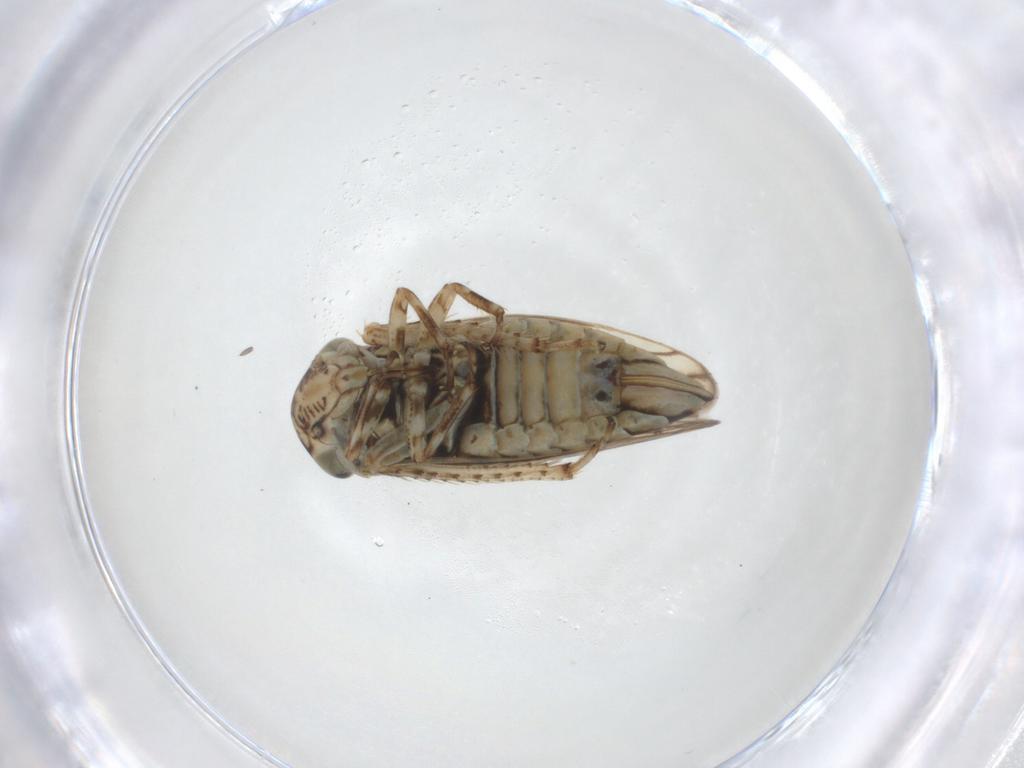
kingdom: Animalia
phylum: Arthropoda
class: Insecta
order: Hemiptera
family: Cicadellidae
